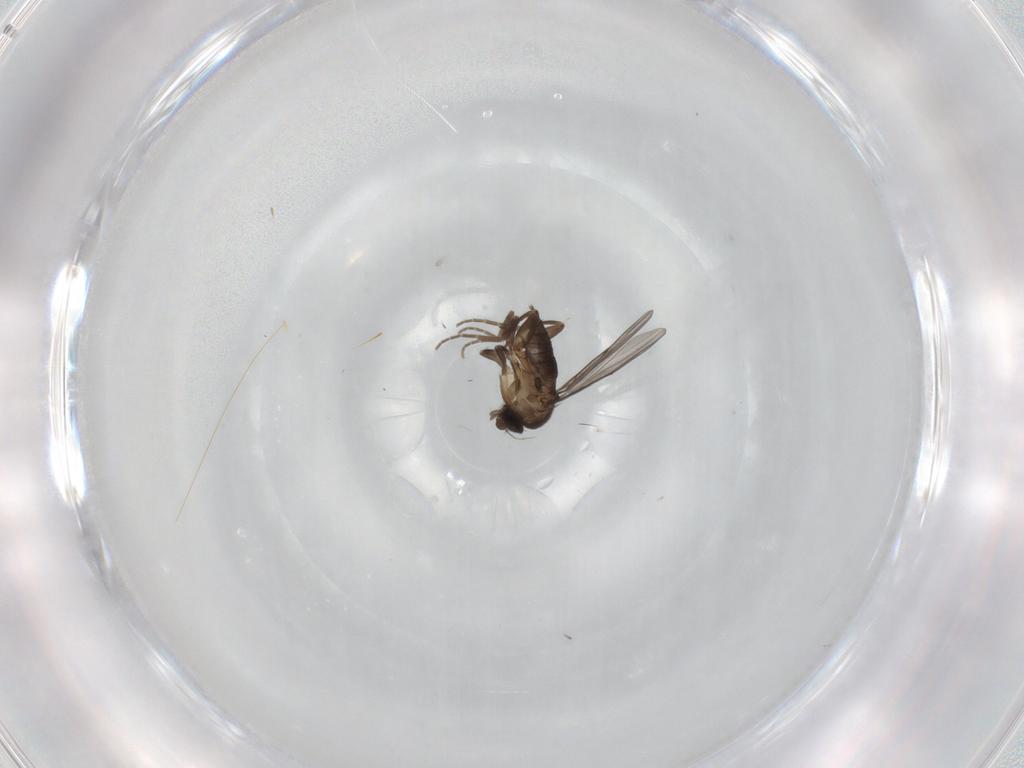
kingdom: Animalia
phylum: Arthropoda
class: Insecta
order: Diptera
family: Phoridae
